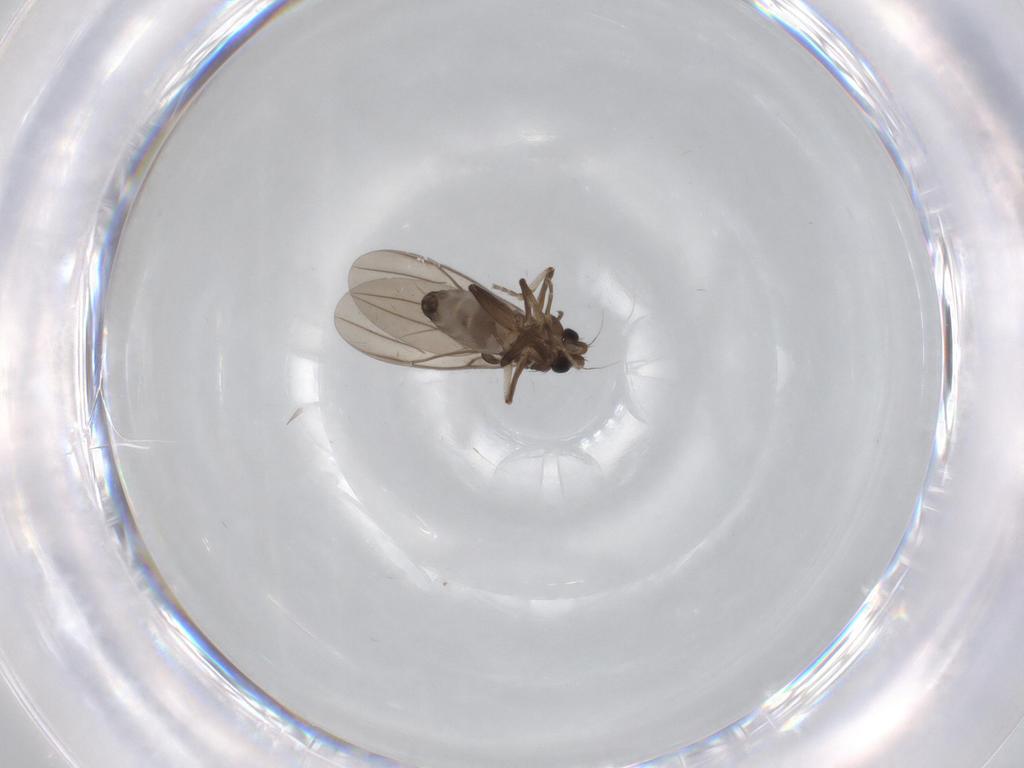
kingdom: Animalia
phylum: Arthropoda
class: Insecta
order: Diptera
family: Phoridae
